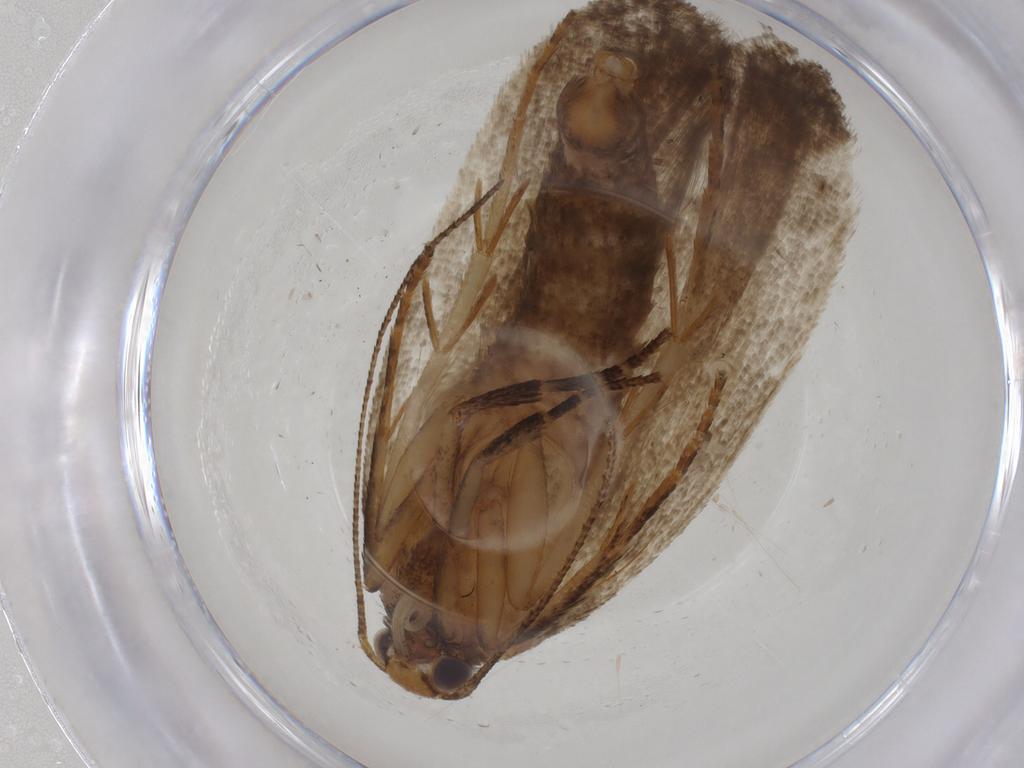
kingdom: Animalia
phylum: Arthropoda
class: Insecta
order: Lepidoptera
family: Gelechiidae
